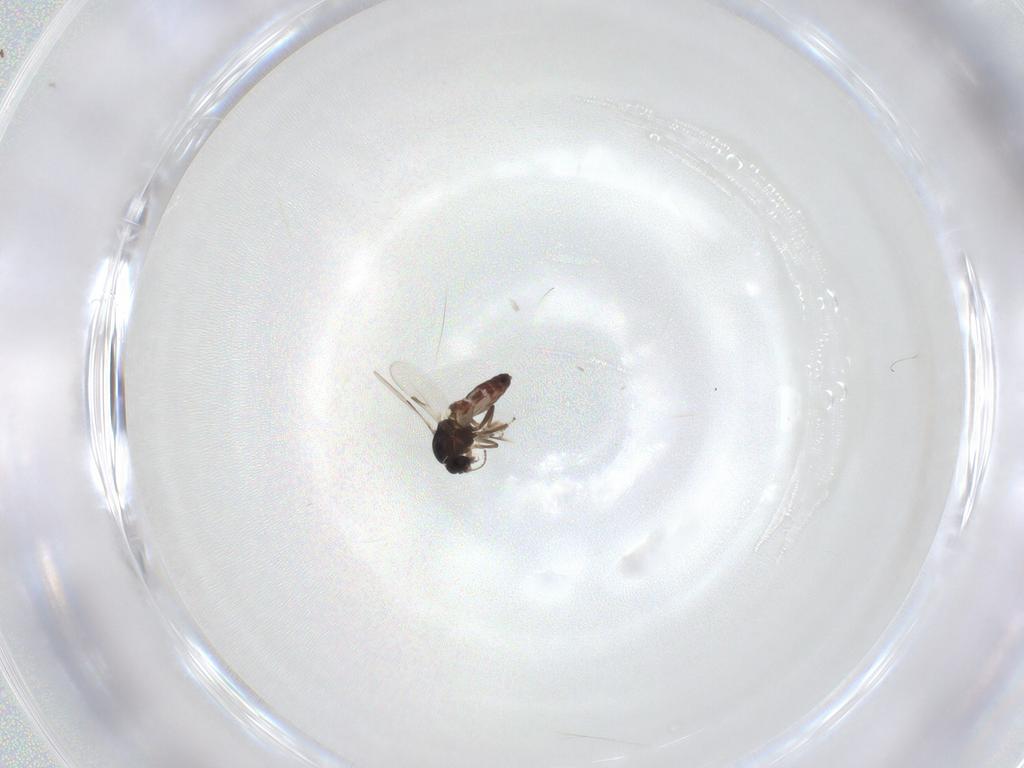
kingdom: Animalia
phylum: Arthropoda
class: Insecta
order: Diptera
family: Ceratopogonidae
